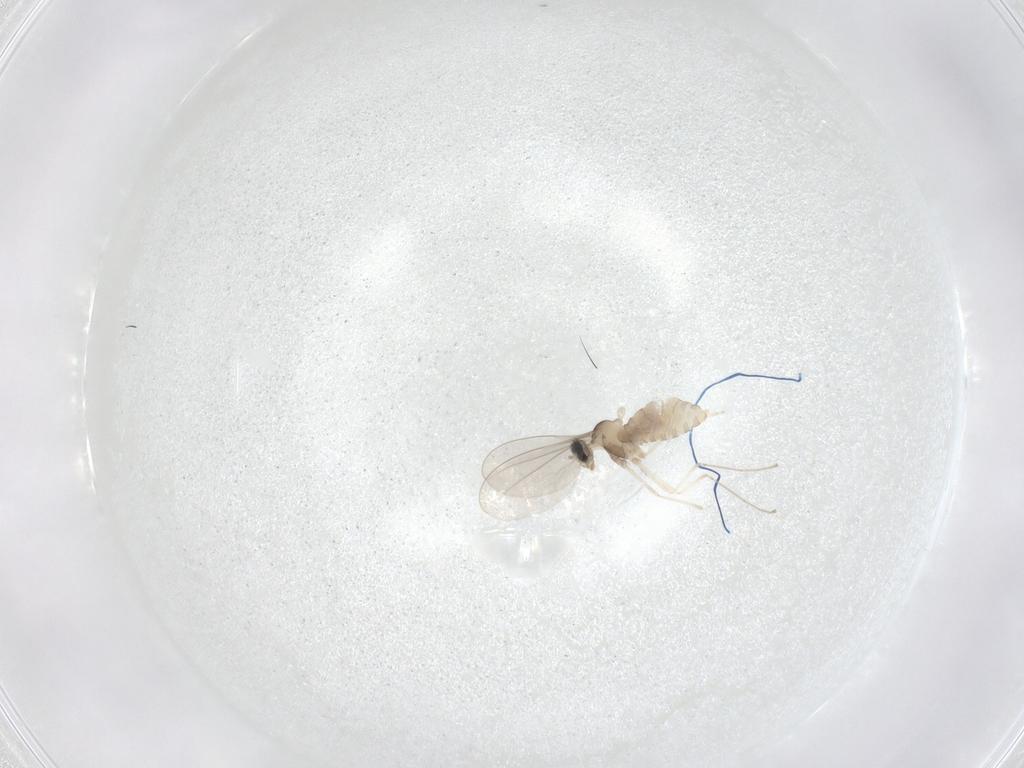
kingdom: Animalia
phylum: Arthropoda
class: Insecta
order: Diptera
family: Cecidomyiidae
